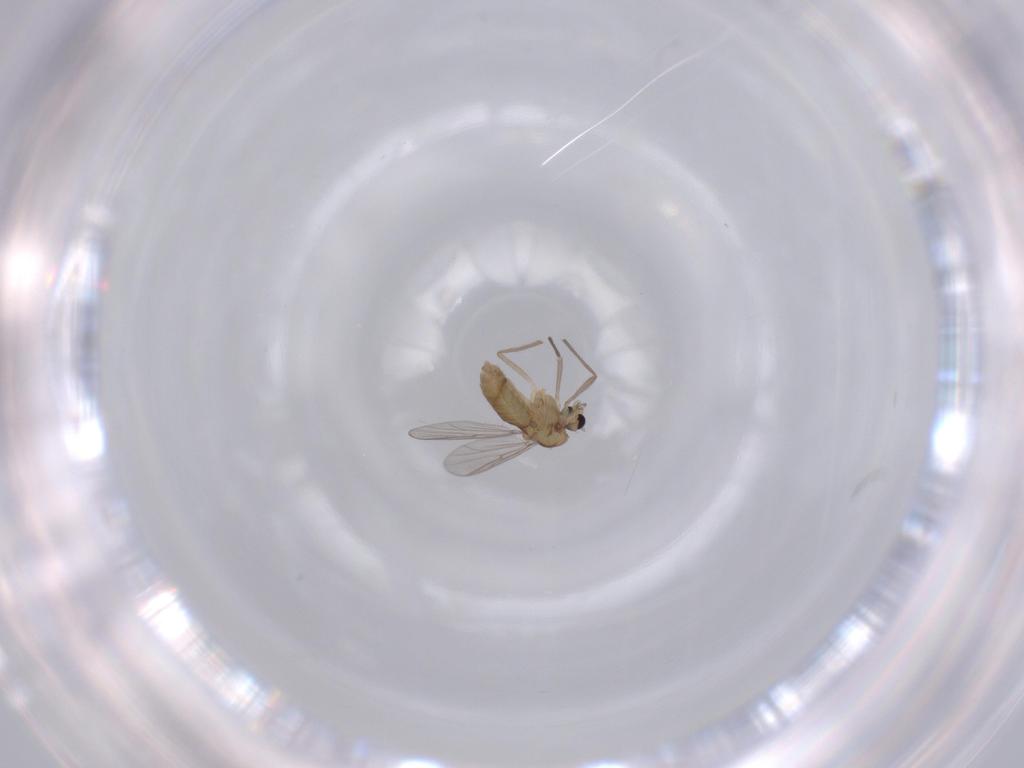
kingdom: Animalia
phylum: Arthropoda
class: Insecta
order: Diptera
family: Chironomidae
